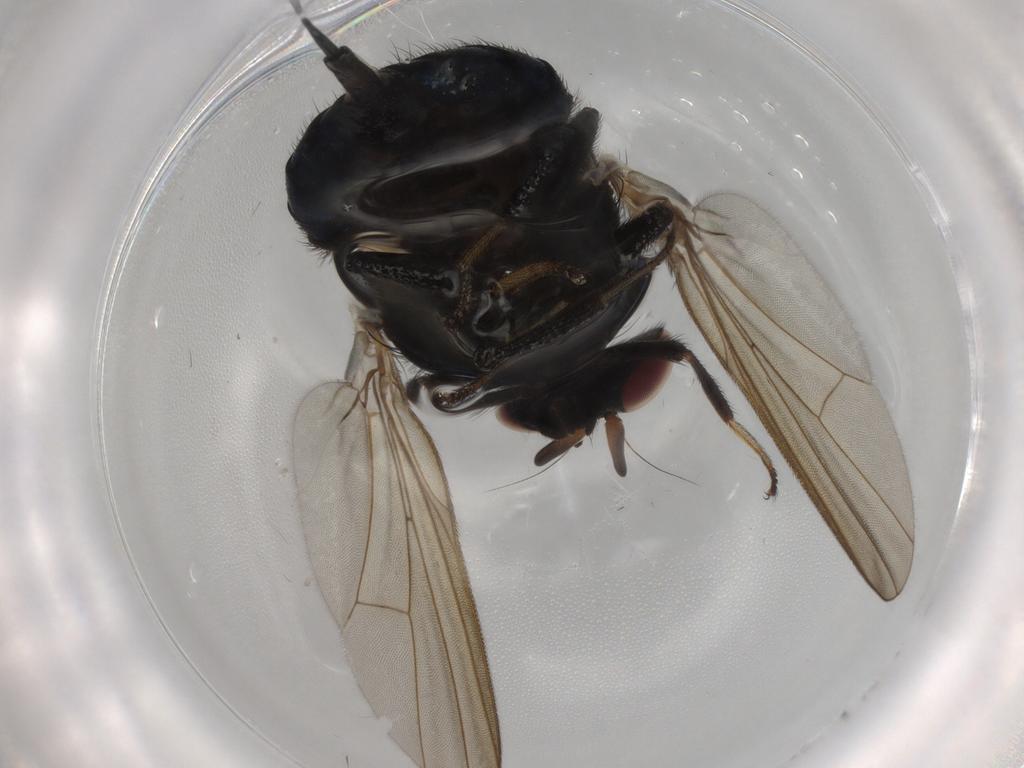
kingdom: Animalia
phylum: Arthropoda
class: Insecta
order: Diptera
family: Lonchaeidae
